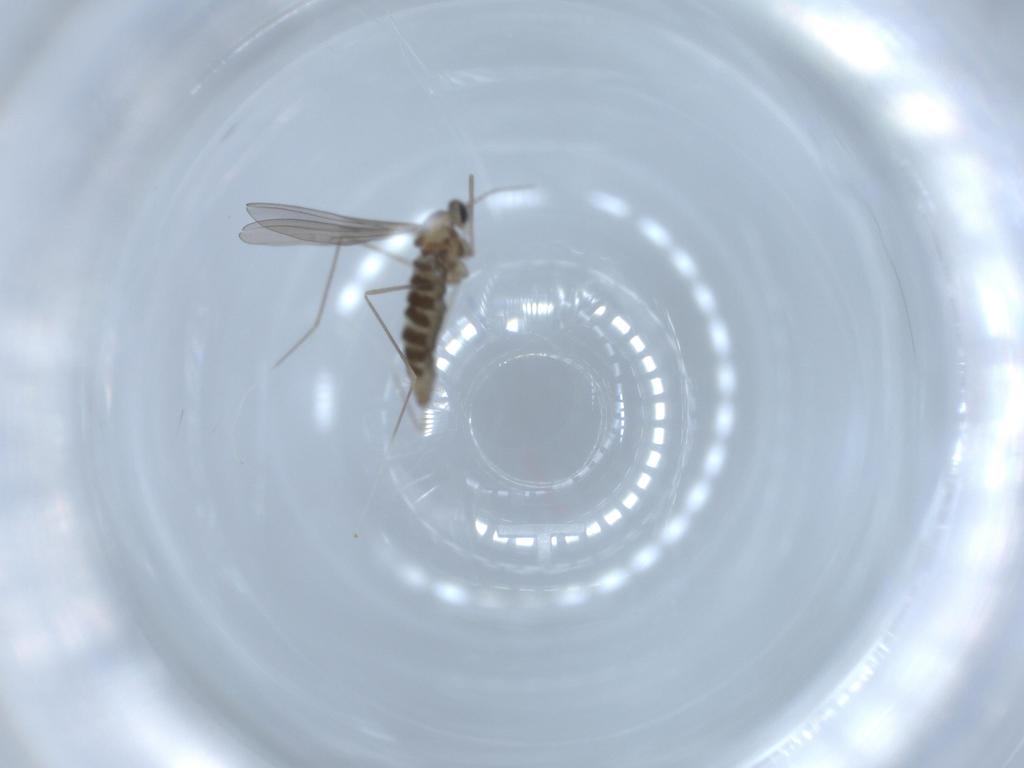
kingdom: Animalia
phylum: Arthropoda
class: Insecta
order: Diptera
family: Cecidomyiidae
